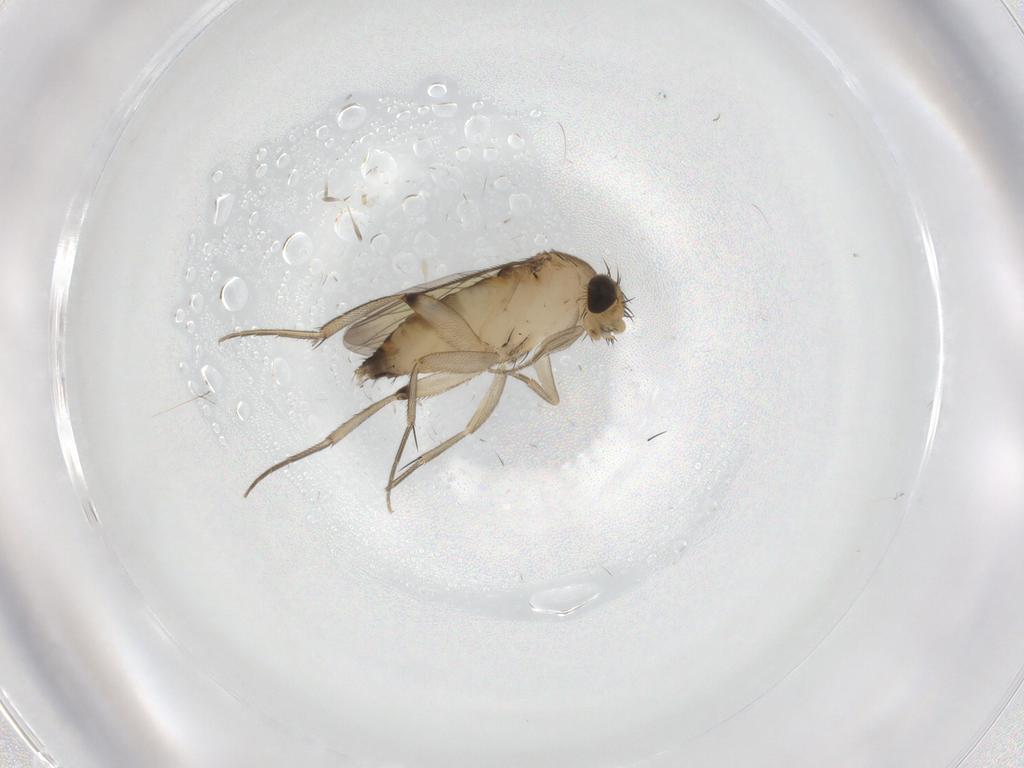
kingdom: Animalia
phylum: Arthropoda
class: Insecta
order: Diptera
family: Phoridae
